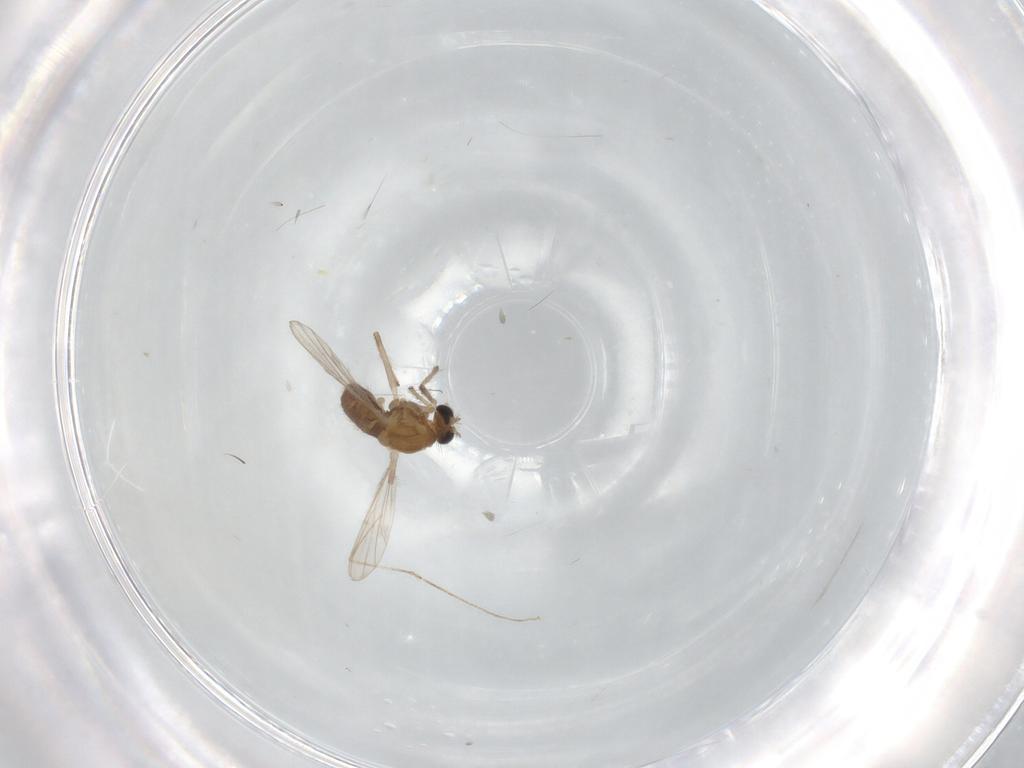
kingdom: Animalia
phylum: Arthropoda
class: Insecta
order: Diptera
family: Chironomidae
